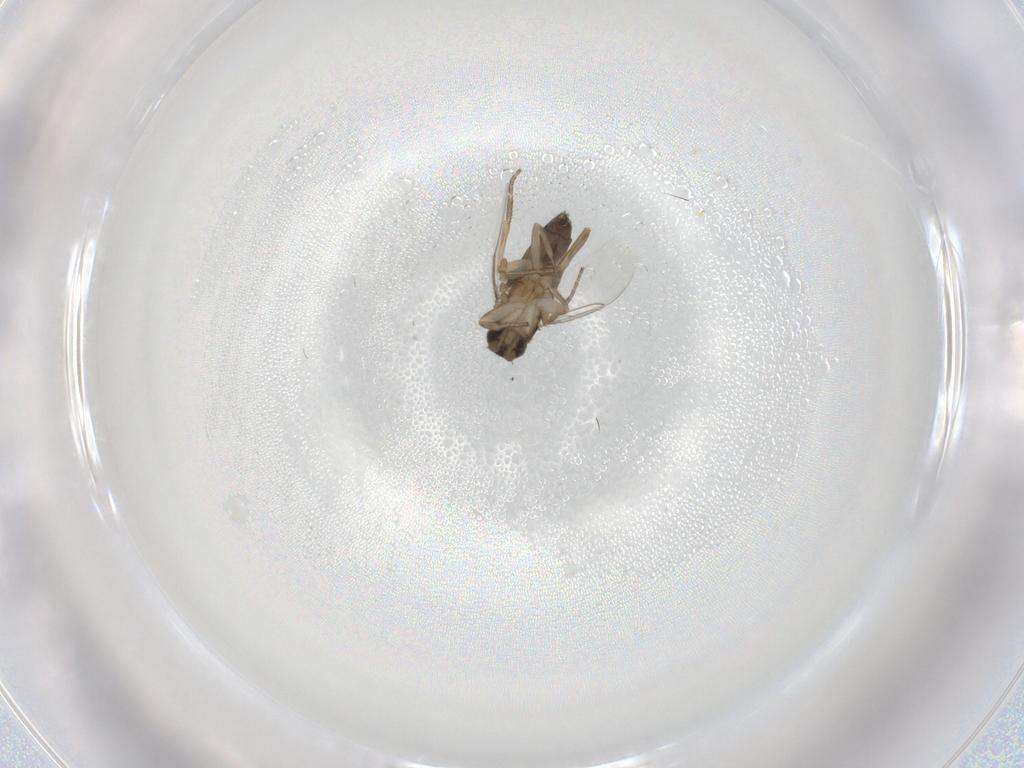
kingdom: Animalia
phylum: Arthropoda
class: Insecta
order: Diptera
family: Phoridae
